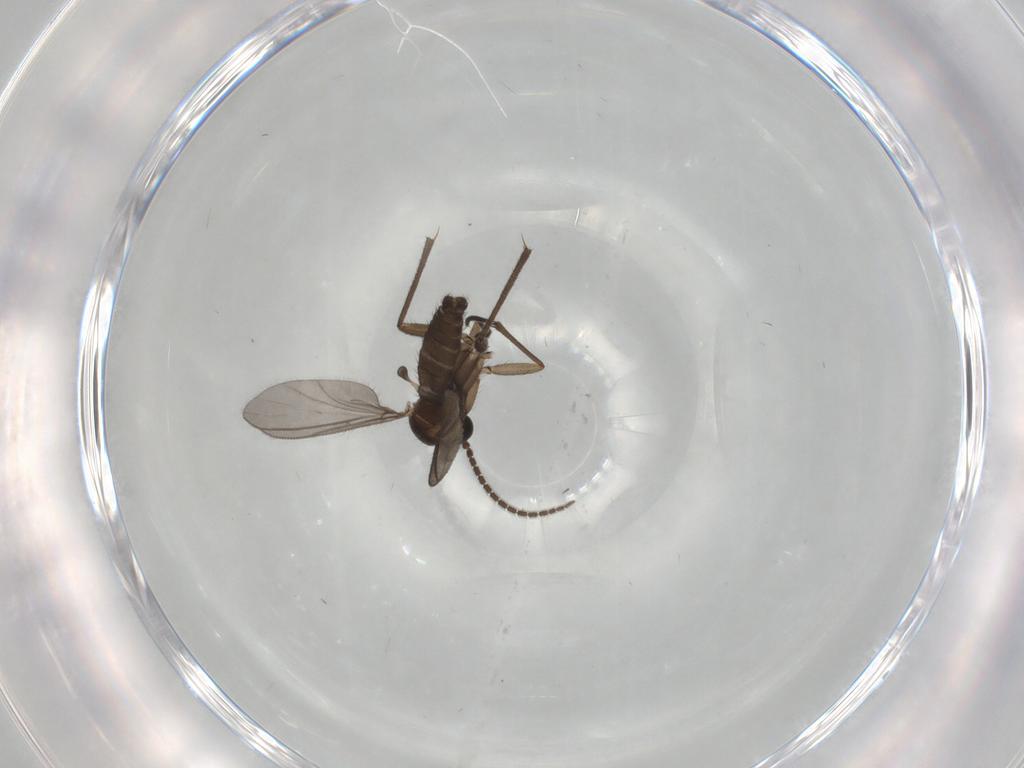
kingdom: Animalia
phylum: Arthropoda
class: Insecta
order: Diptera
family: Sciaridae
